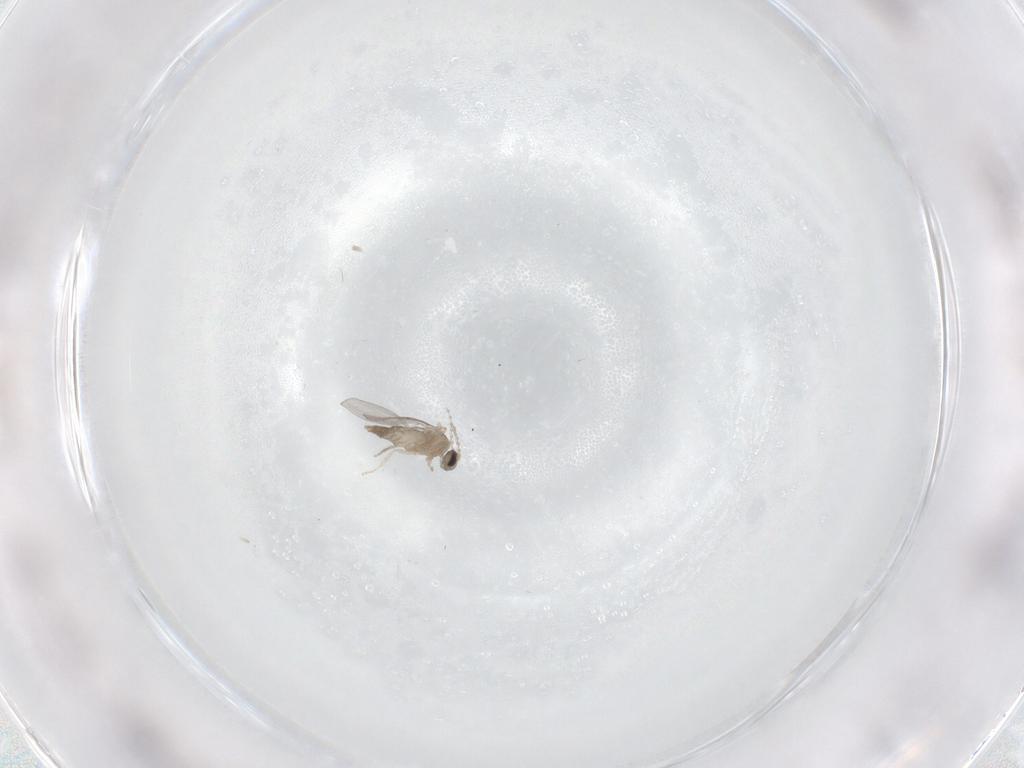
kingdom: Animalia
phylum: Arthropoda
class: Insecta
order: Diptera
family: Cecidomyiidae
